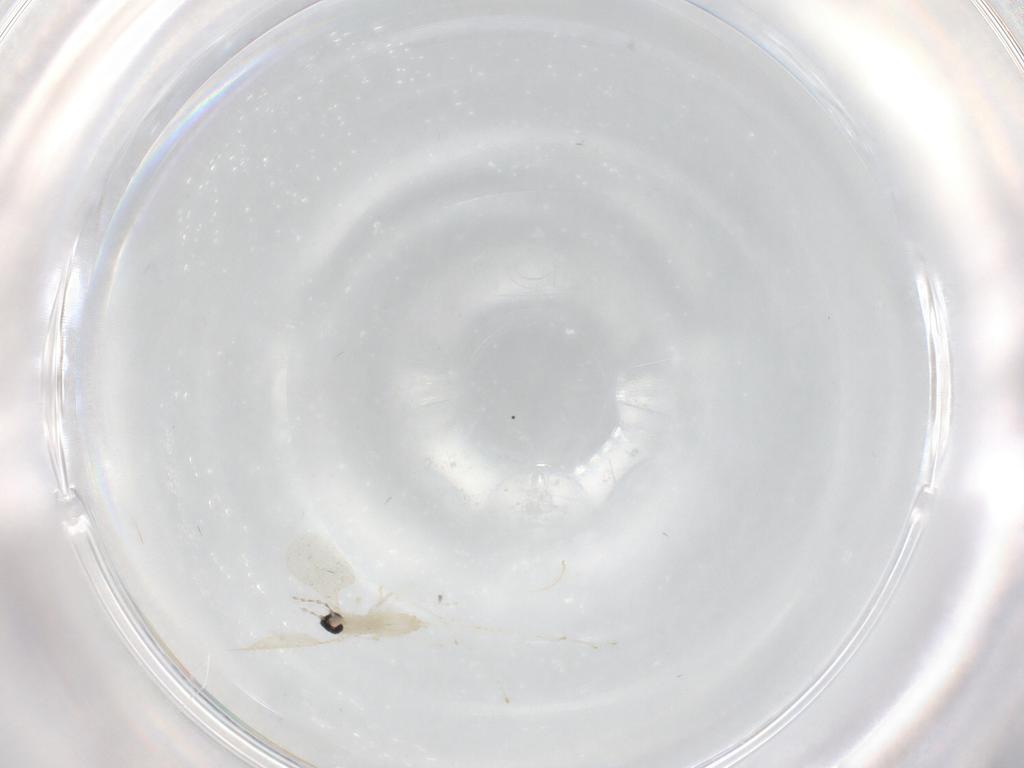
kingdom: Animalia
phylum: Arthropoda
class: Insecta
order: Diptera
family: Cecidomyiidae
